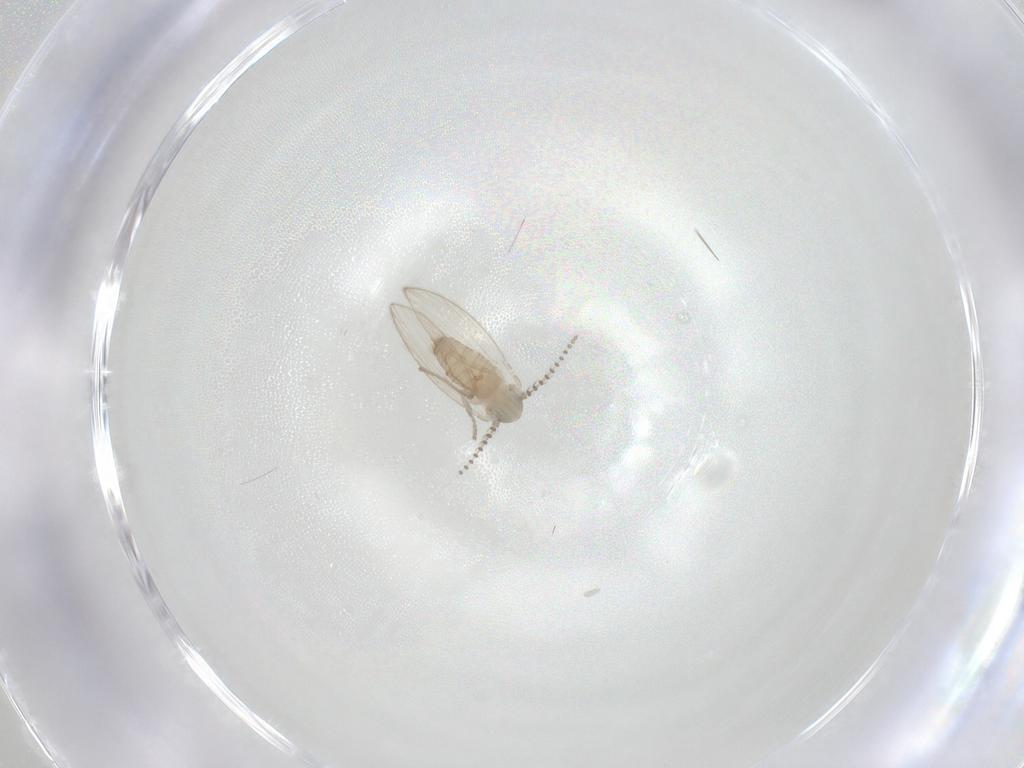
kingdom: Animalia
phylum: Arthropoda
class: Insecta
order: Diptera
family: Psychodidae
